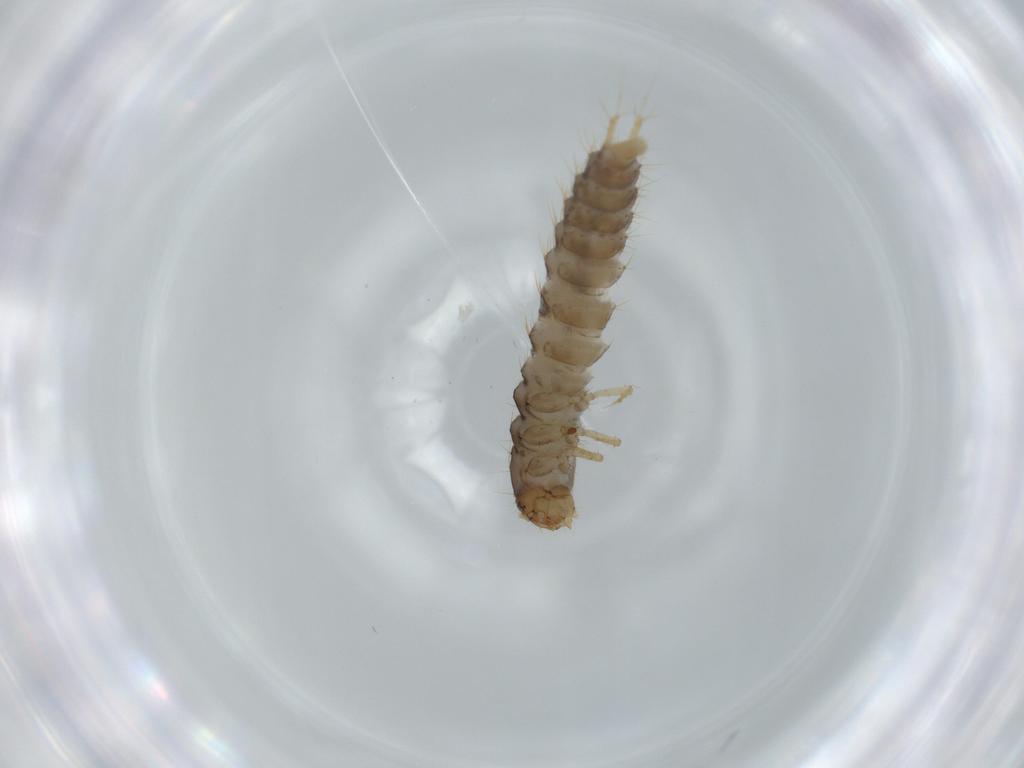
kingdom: Animalia
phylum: Arthropoda
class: Insecta
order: Coleoptera
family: Staphylinidae
